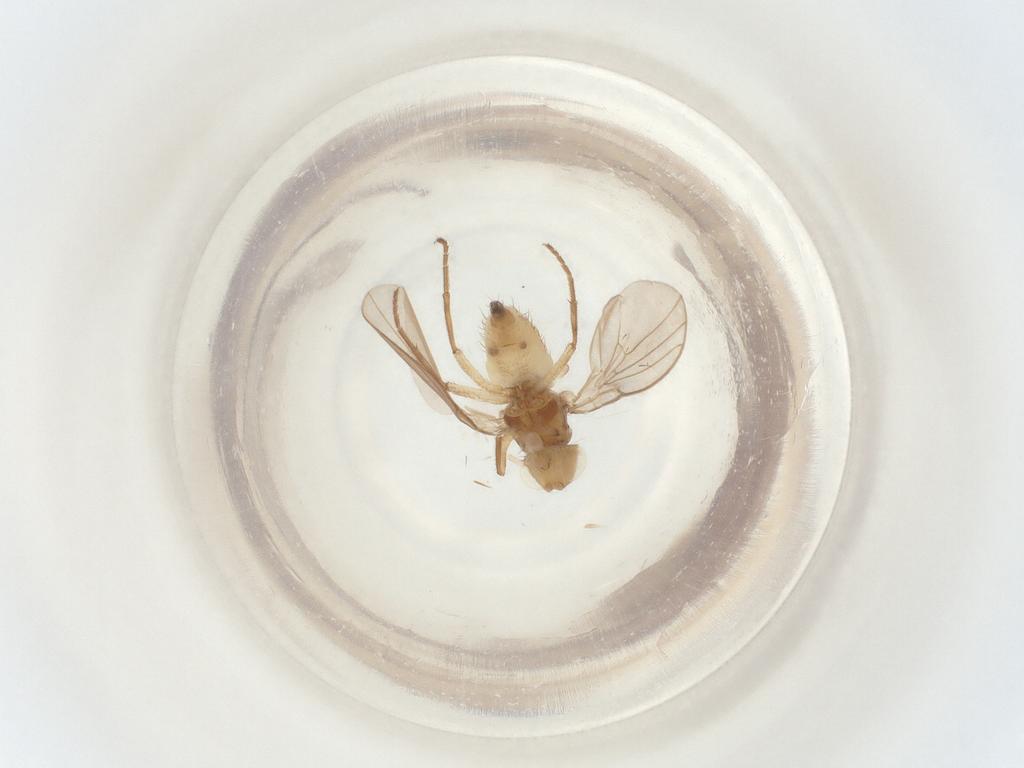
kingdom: Animalia
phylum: Arthropoda
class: Insecta
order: Diptera
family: Agromyzidae
